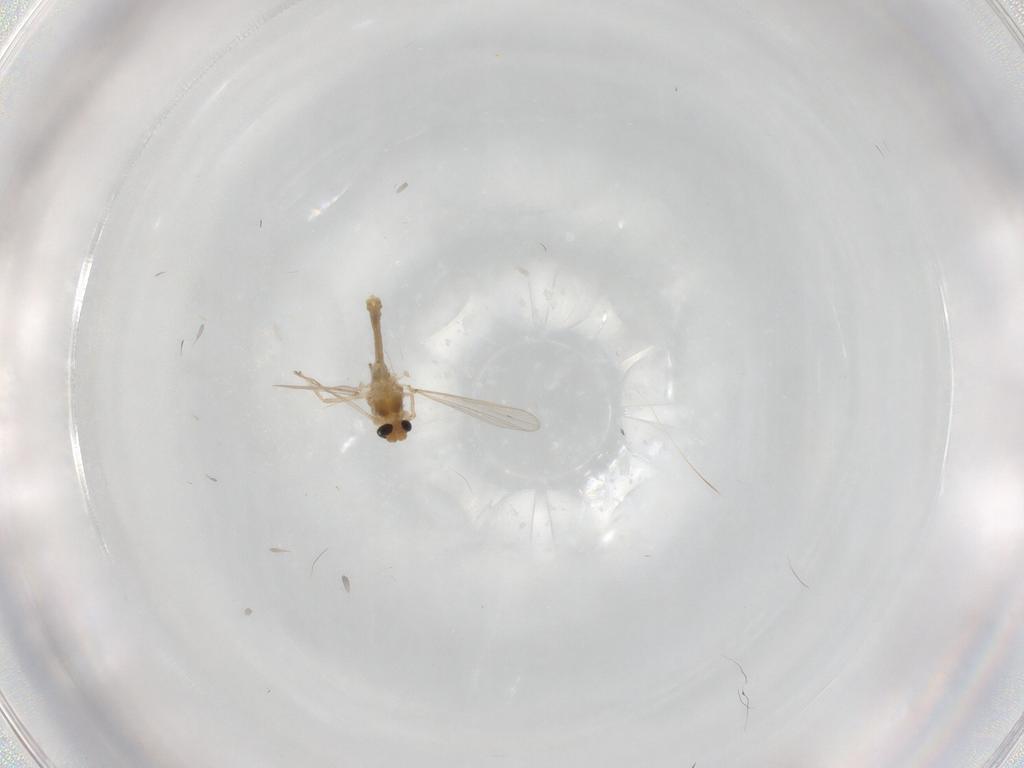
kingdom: Animalia
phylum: Arthropoda
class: Insecta
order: Diptera
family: Chironomidae
